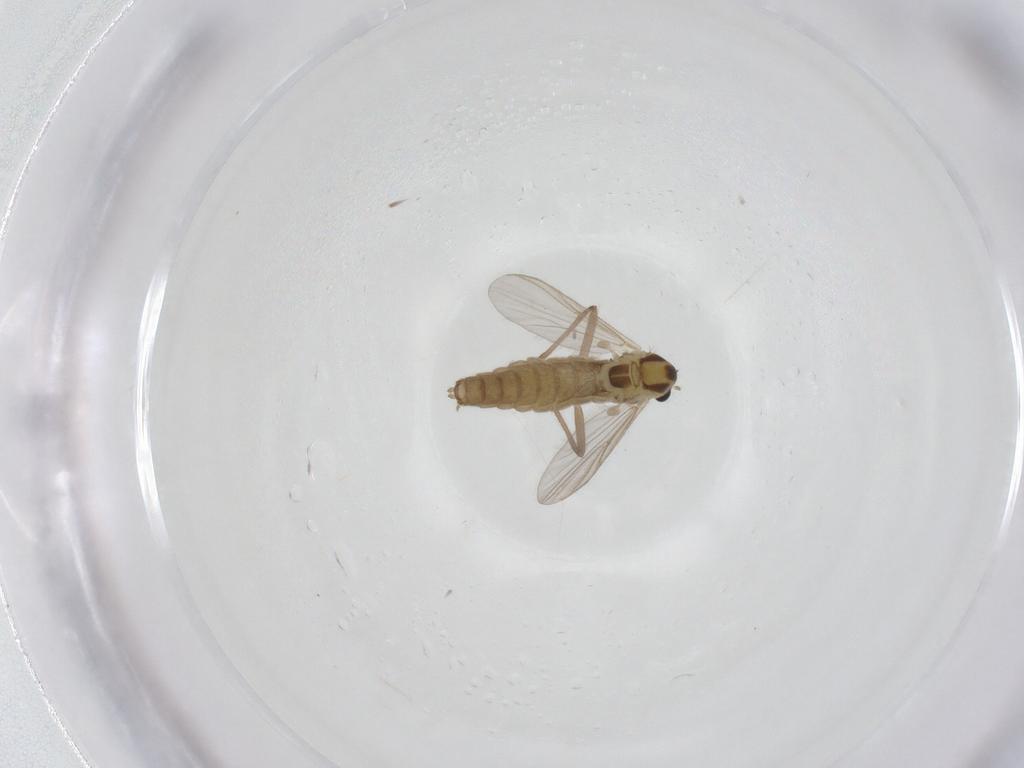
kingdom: Animalia
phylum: Arthropoda
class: Insecta
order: Diptera
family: Chironomidae
